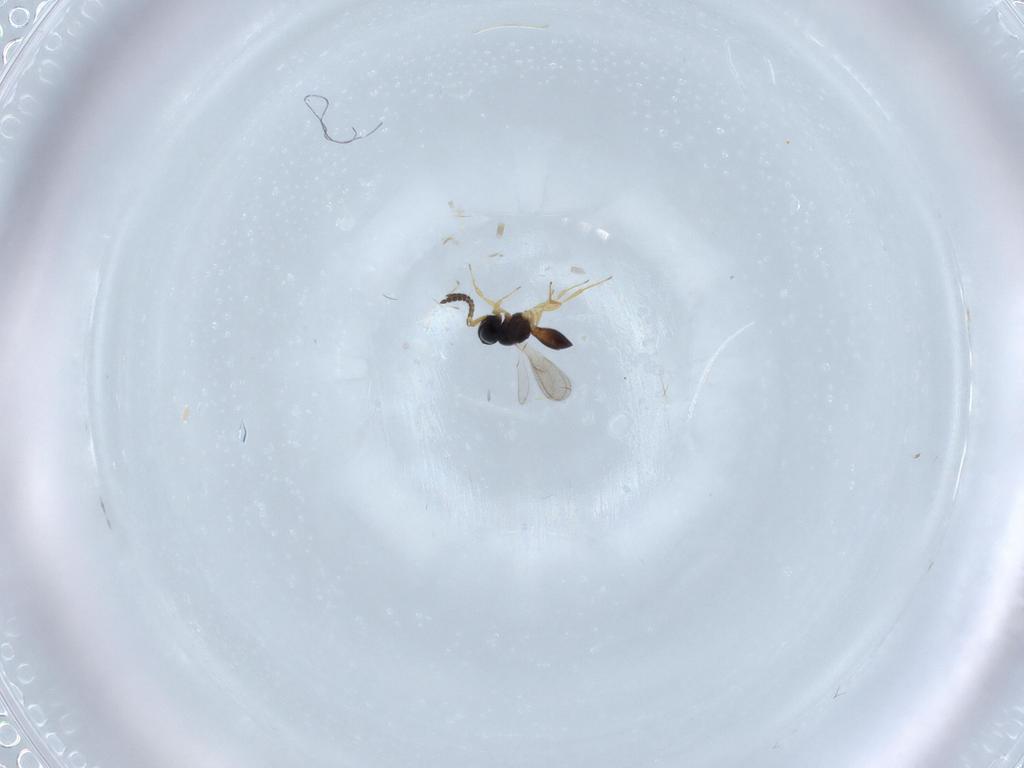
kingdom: Animalia
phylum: Arthropoda
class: Insecta
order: Hymenoptera
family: Scelionidae
